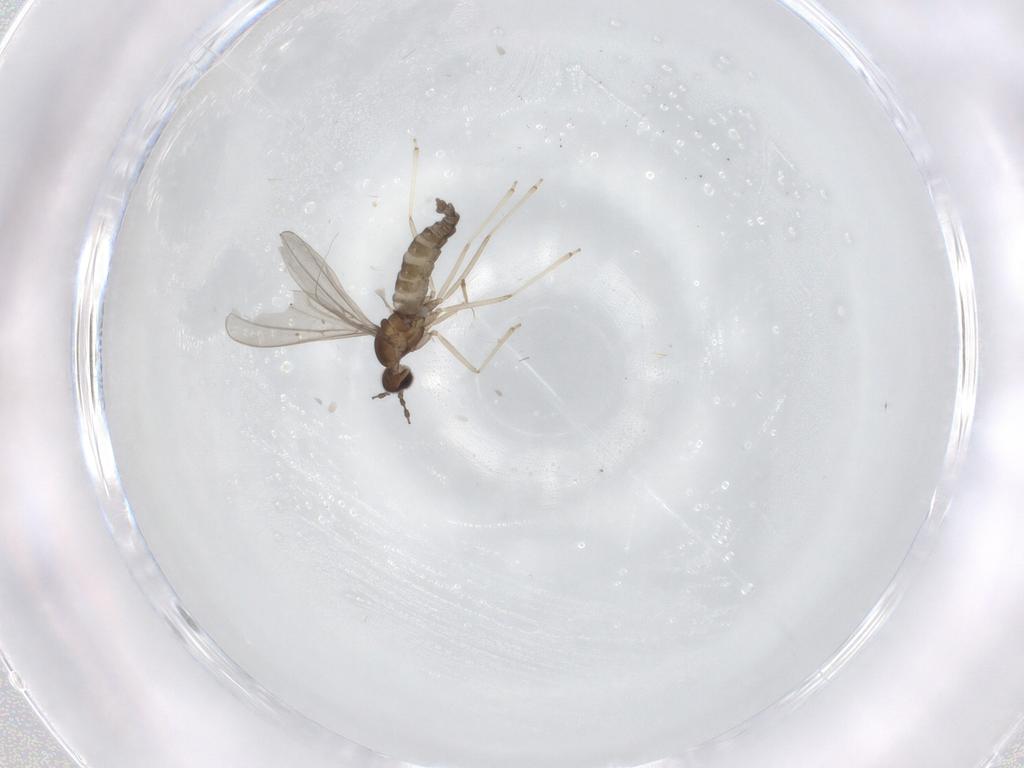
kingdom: Animalia
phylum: Arthropoda
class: Insecta
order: Diptera
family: Cecidomyiidae
